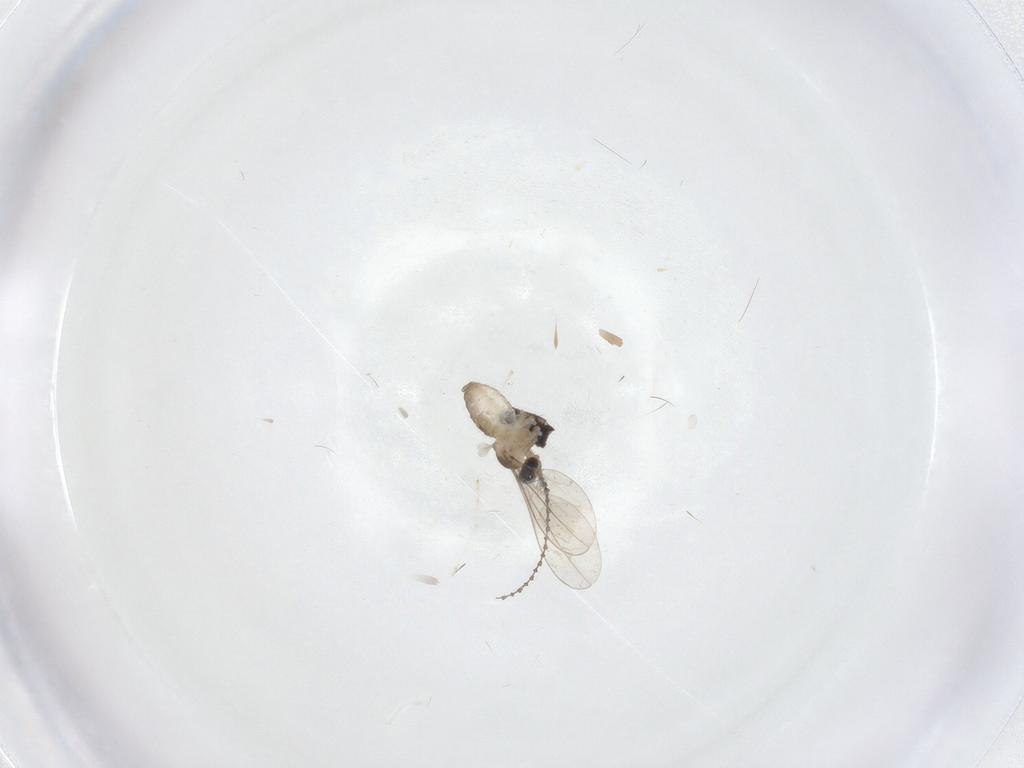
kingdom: Animalia
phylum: Arthropoda
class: Insecta
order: Diptera
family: Cecidomyiidae
